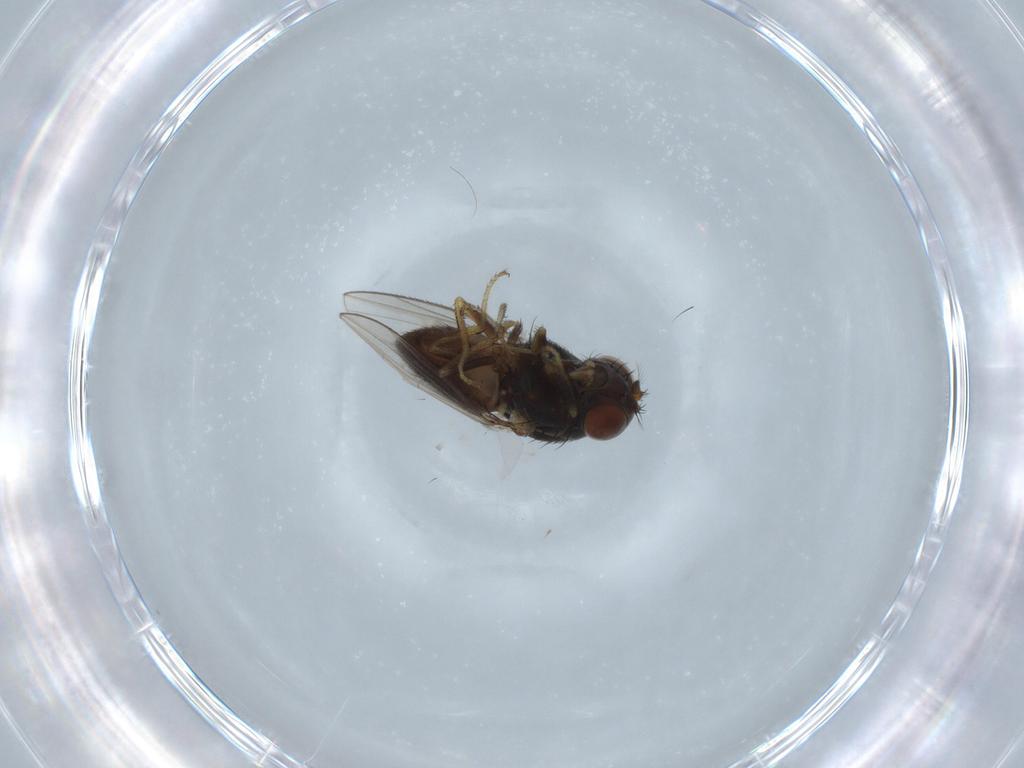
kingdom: Animalia
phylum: Arthropoda
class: Insecta
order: Diptera
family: Ephydridae
